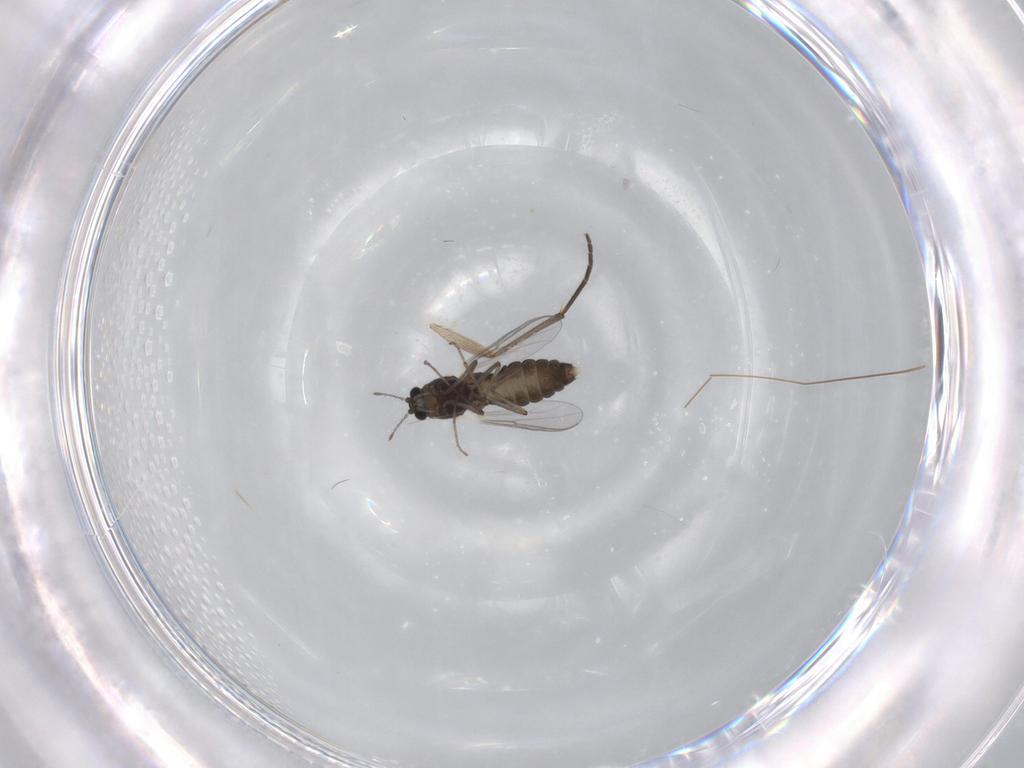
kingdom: Animalia
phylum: Arthropoda
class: Insecta
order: Diptera
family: Chironomidae
